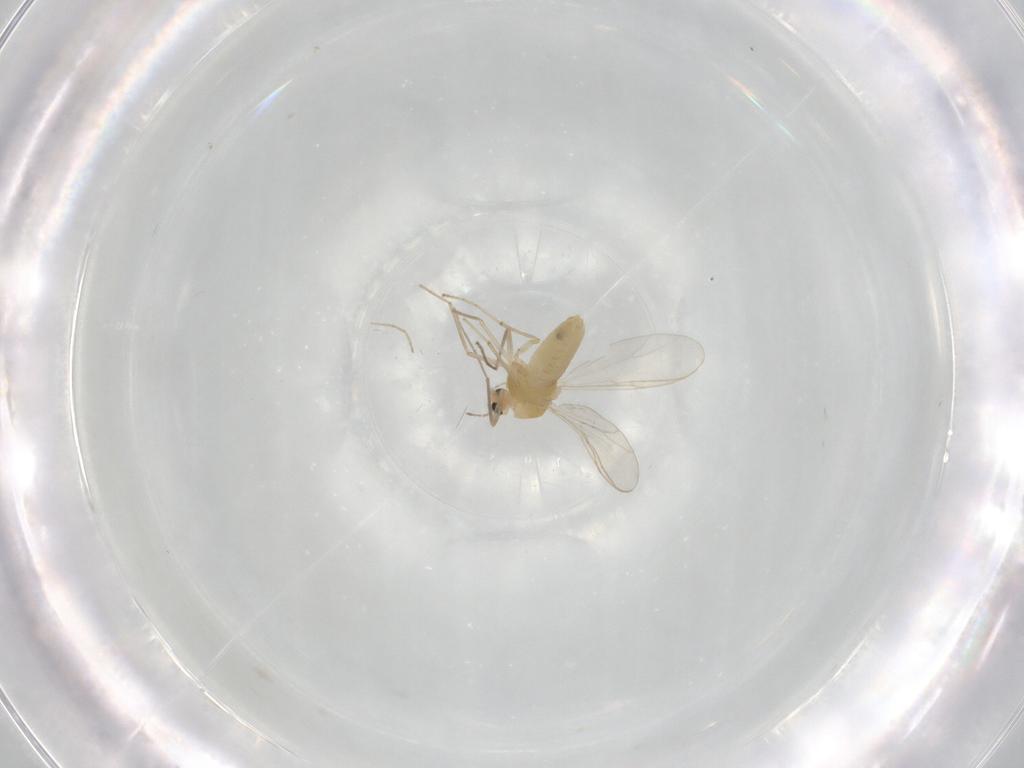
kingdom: Animalia
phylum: Arthropoda
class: Insecta
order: Diptera
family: Chironomidae
